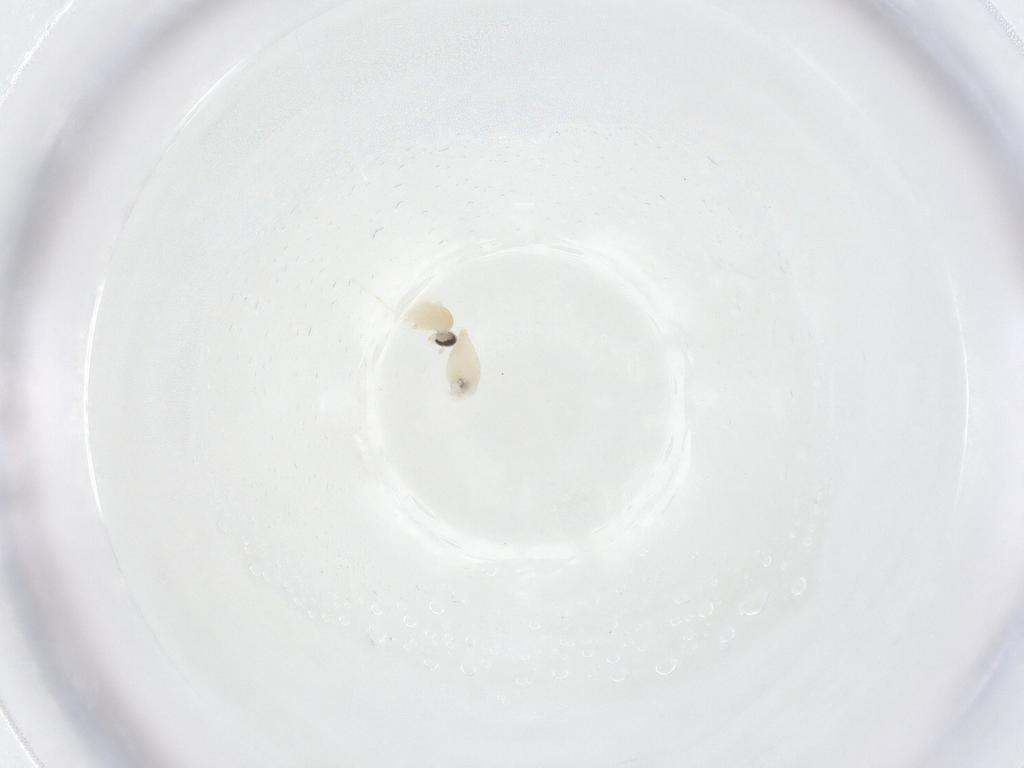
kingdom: Animalia
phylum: Arthropoda
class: Insecta
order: Diptera
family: Cecidomyiidae
